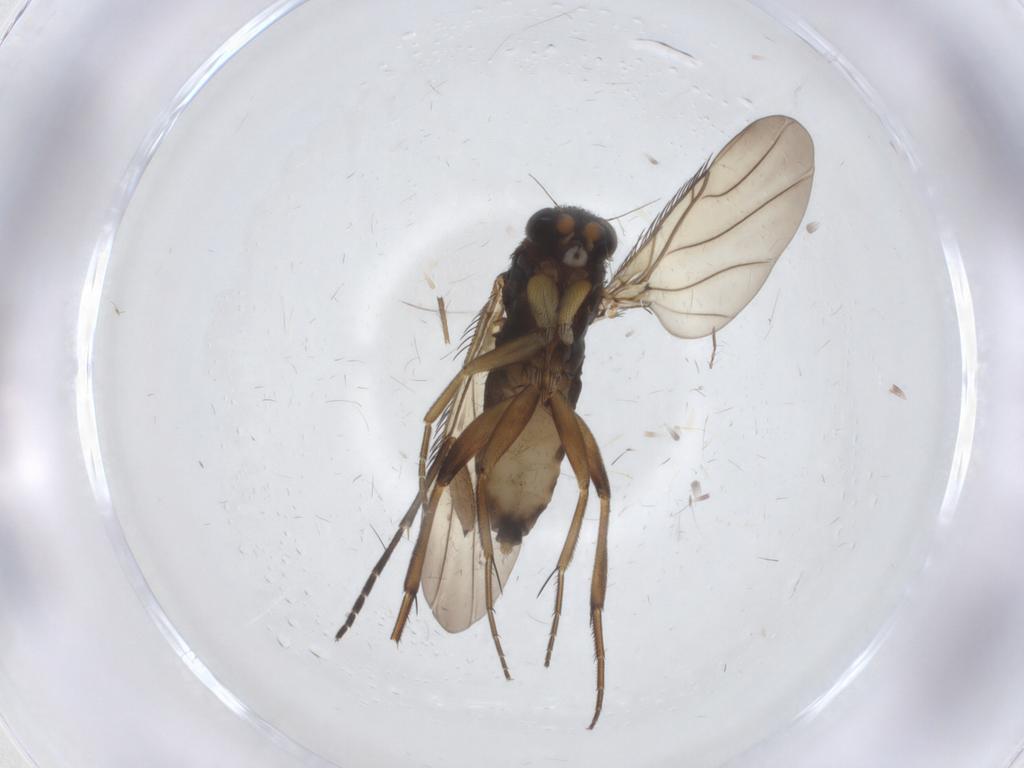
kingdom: Animalia
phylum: Arthropoda
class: Insecta
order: Diptera
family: Phoridae
